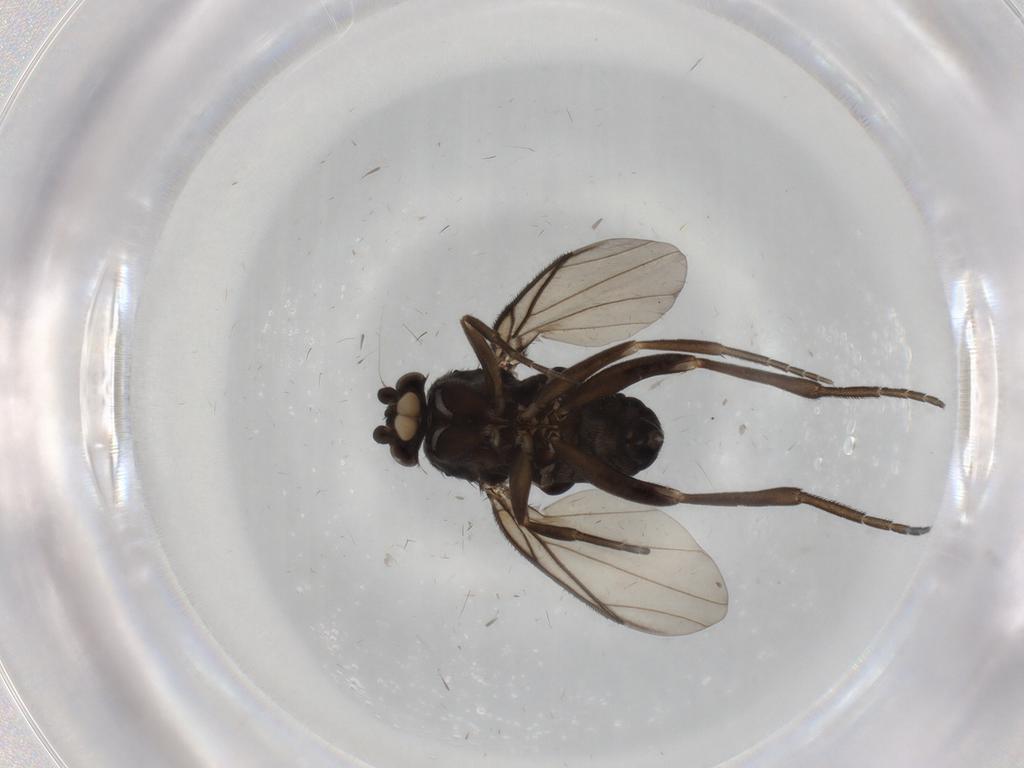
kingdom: Animalia
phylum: Arthropoda
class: Insecta
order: Diptera
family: Phoridae
